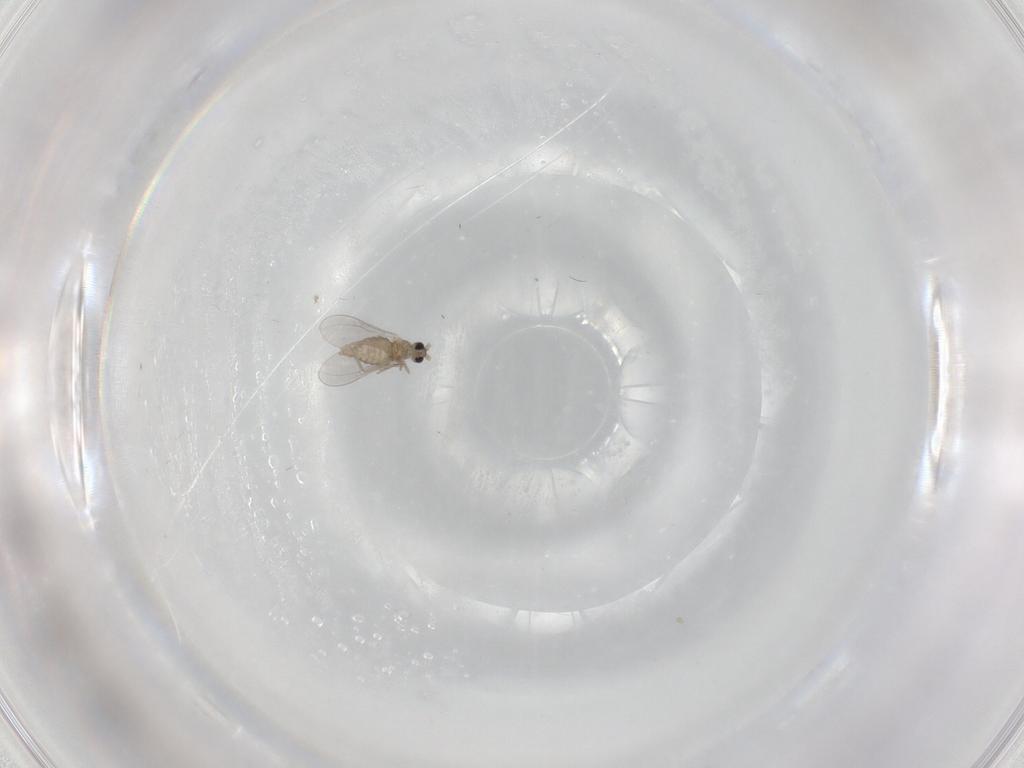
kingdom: Animalia
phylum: Arthropoda
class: Insecta
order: Diptera
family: Cecidomyiidae
